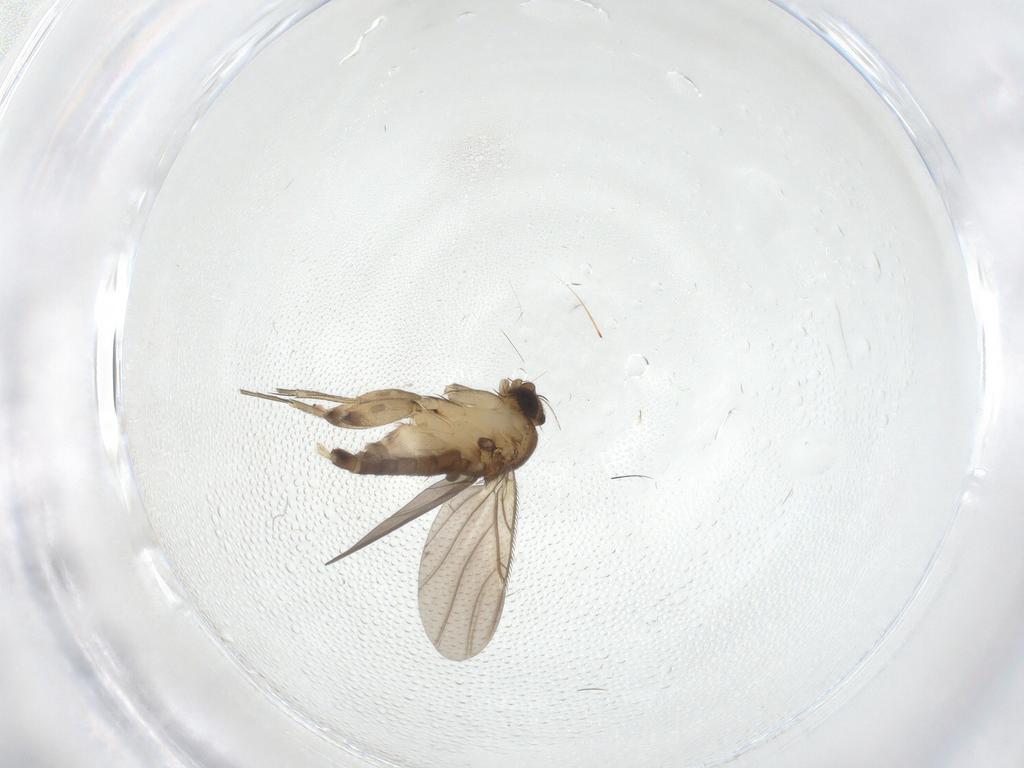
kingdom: Animalia
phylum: Arthropoda
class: Insecta
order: Diptera
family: Phoridae
